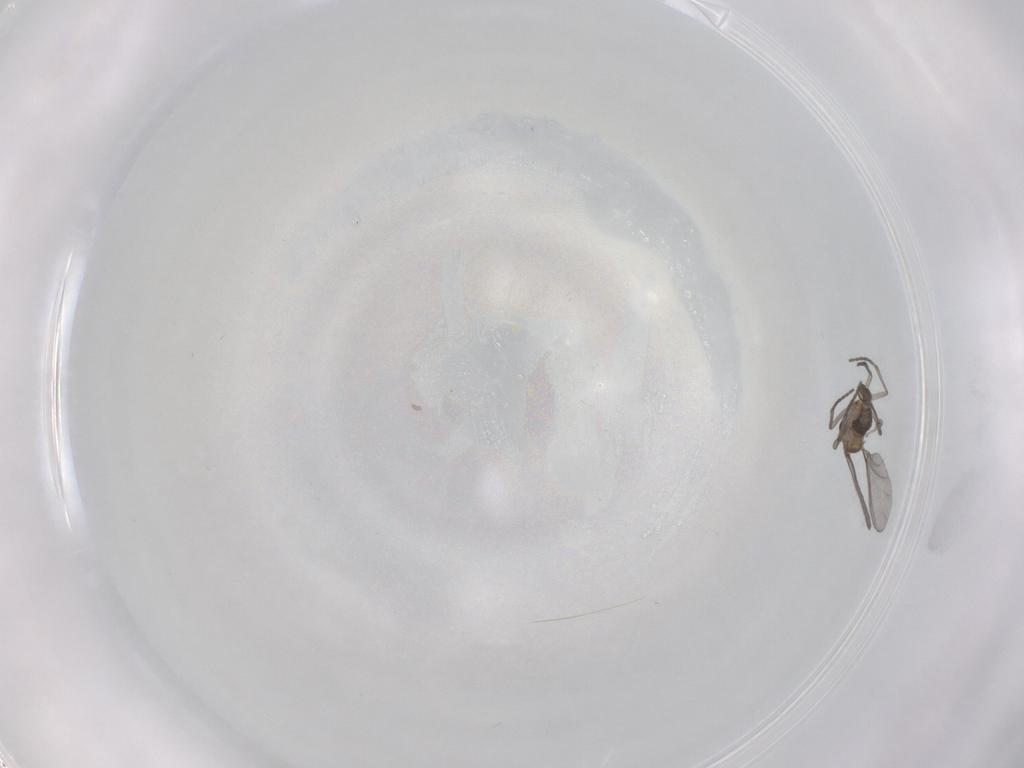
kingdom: Animalia
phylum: Arthropoda
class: Insecta
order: Diptera
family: Sciaridae
